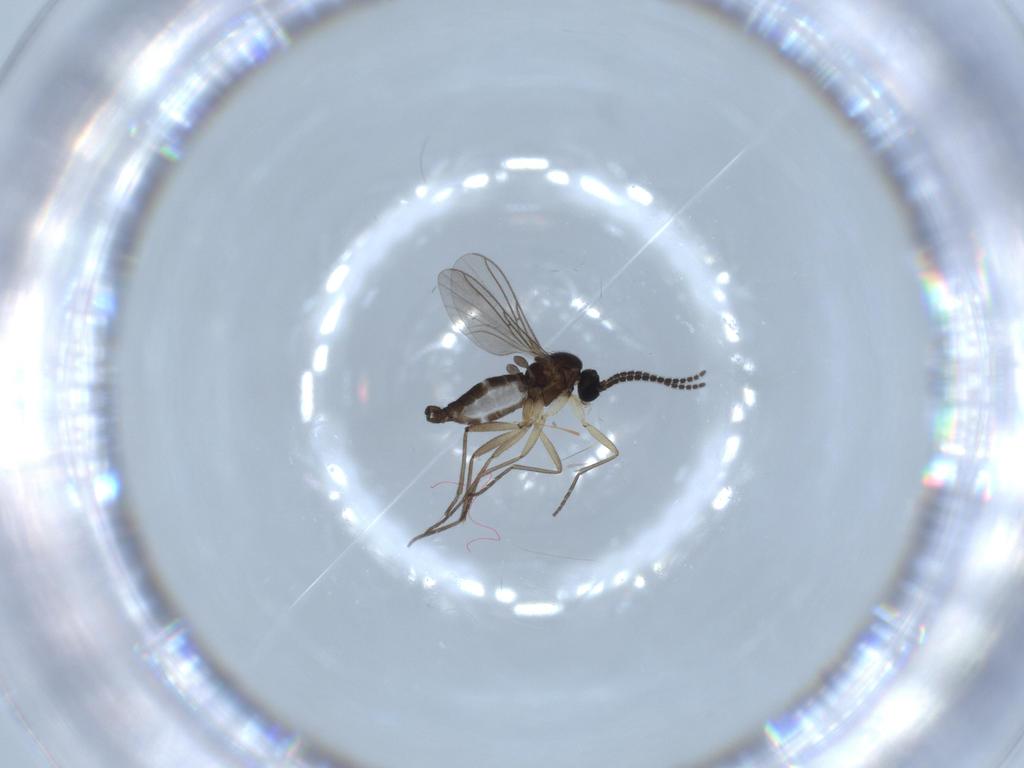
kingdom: Animalia
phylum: Arthropoda
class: Insecta
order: Diptera
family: Sciaridae
